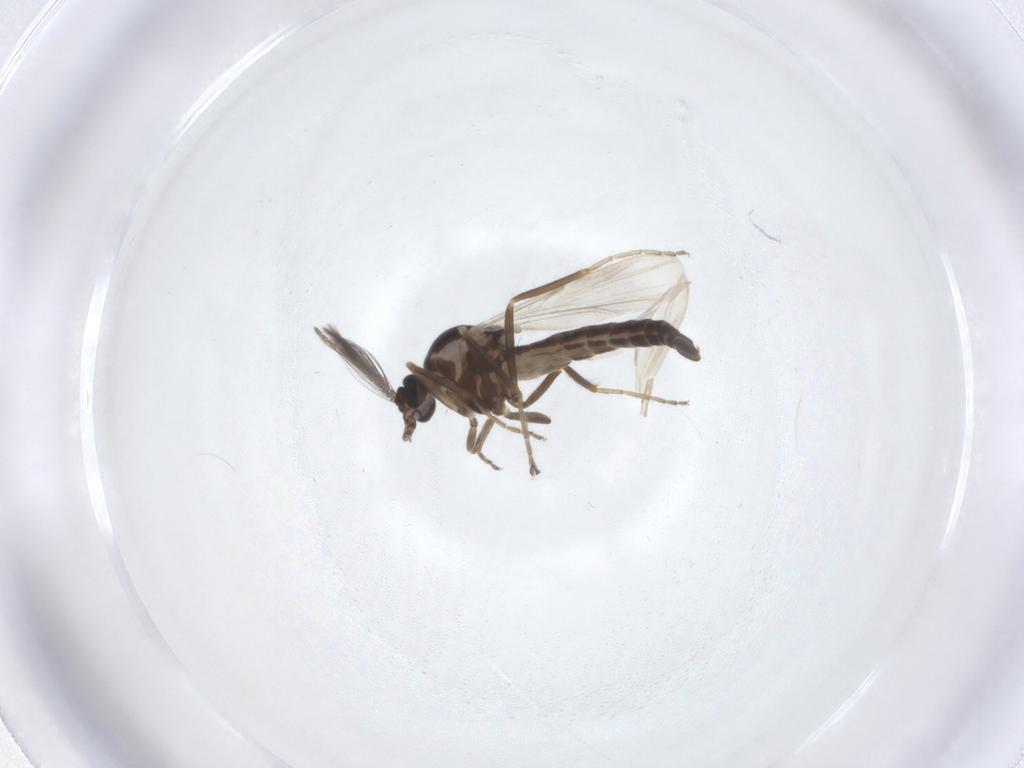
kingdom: Animalia
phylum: Arthropoda
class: Insecta
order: Diptera
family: Ceratopogonidae
